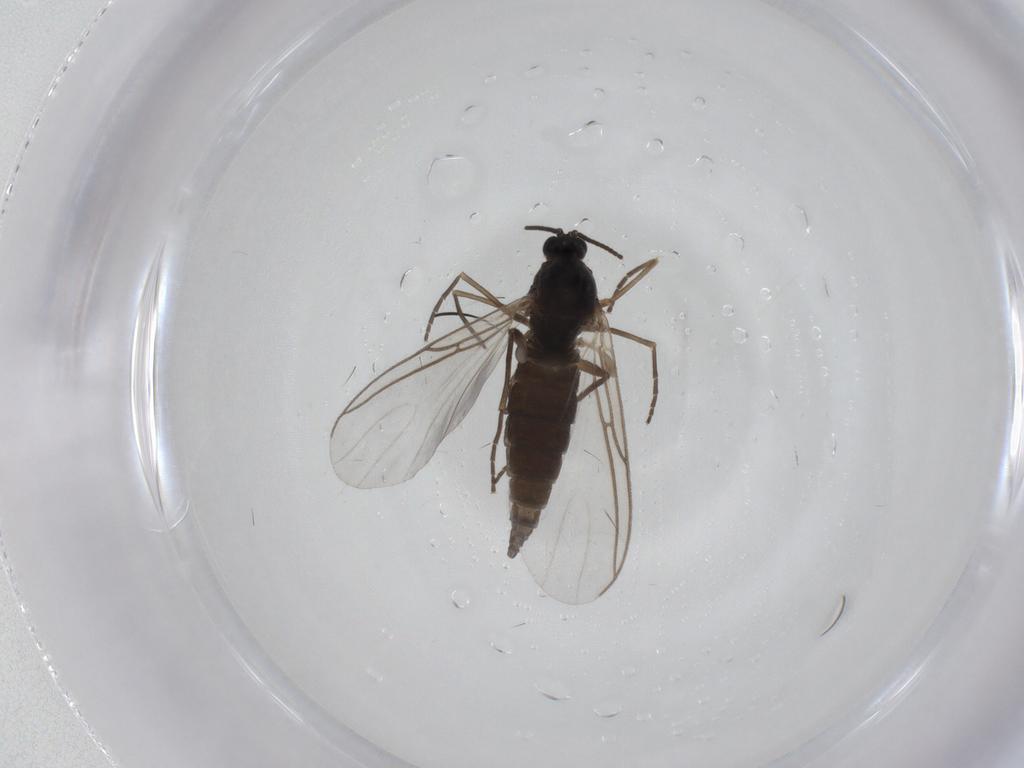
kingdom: Animalia
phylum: Arthropoda
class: Insecta
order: Diptera
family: Sciaridae
